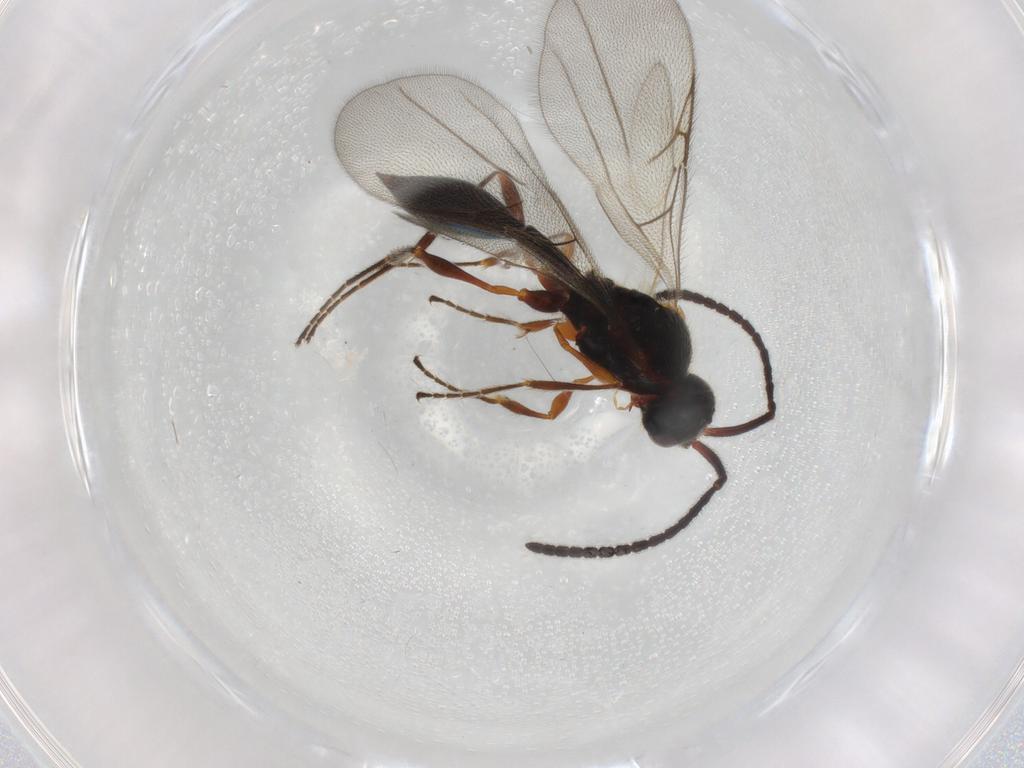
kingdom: Animalia
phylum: Arthropoda
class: Insecta
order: Hymenoptera
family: Diapriidae
